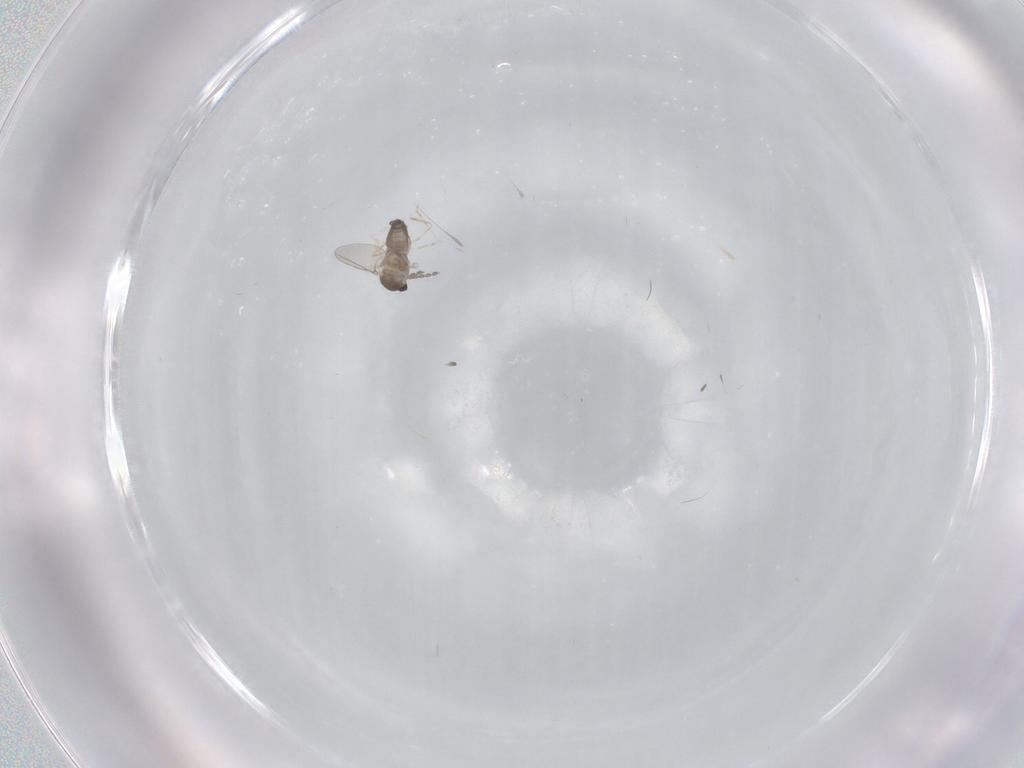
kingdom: Animalia
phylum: Arthropoda
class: Insecta
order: Diptera
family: Cecidomyiidae
